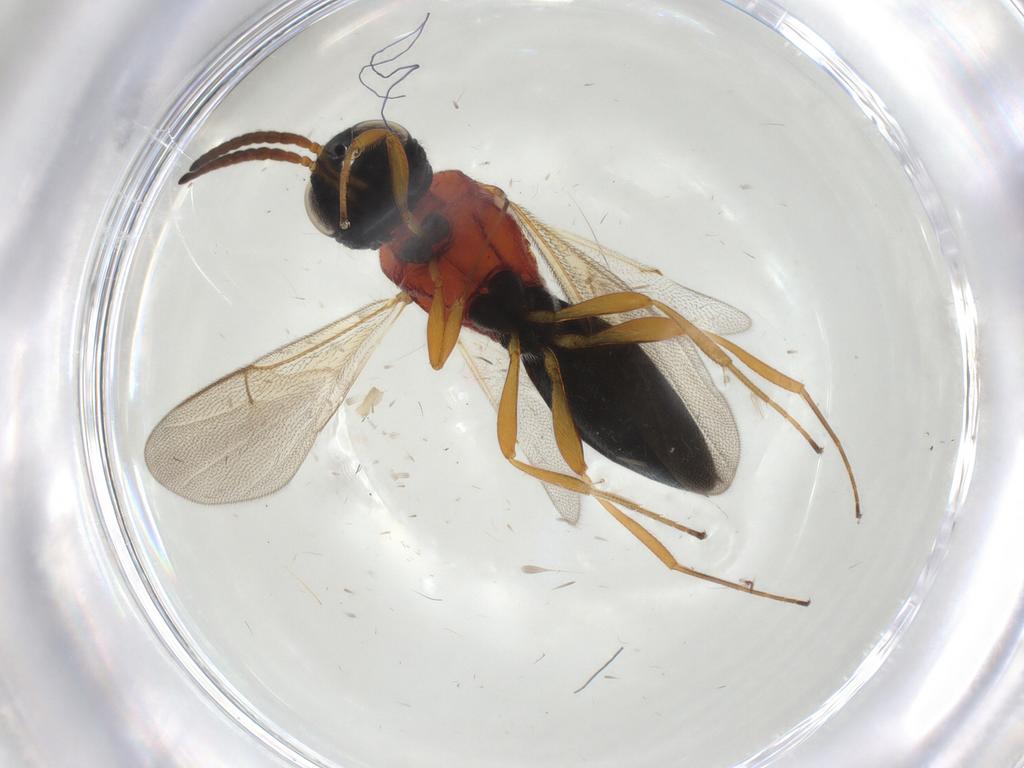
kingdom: Animalia
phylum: Arthropoda
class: Insecta
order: Hymenoptera
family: Scelionidae
